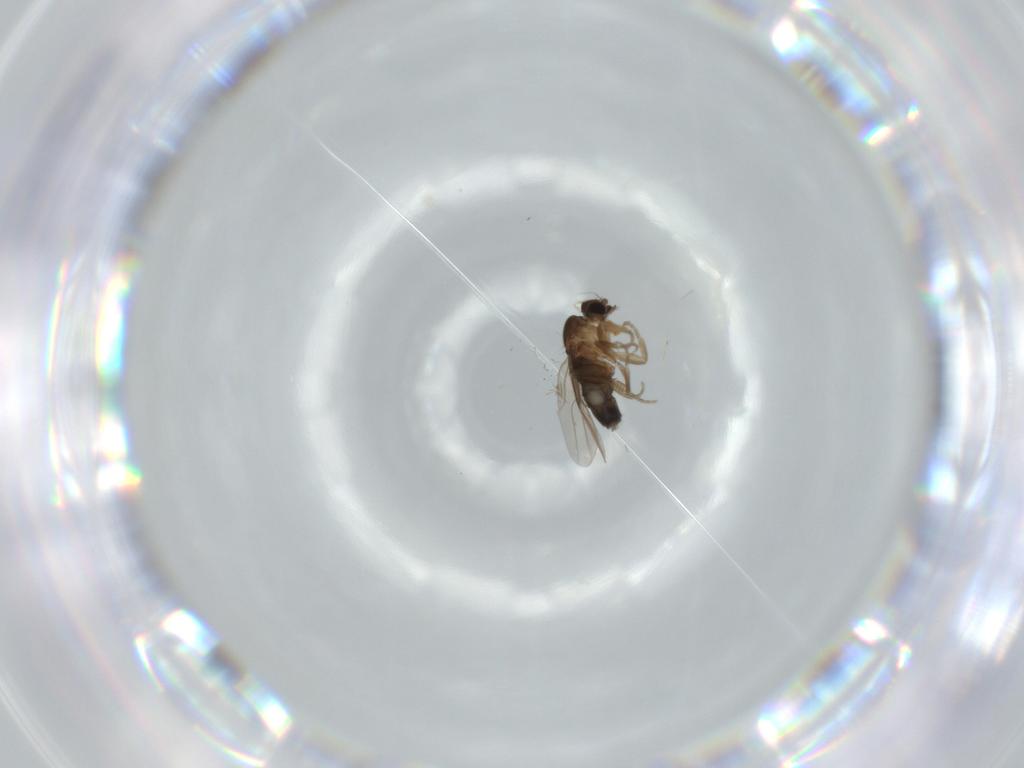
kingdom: Animalia
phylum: Arthropoda
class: Insecta
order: Diptera
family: Phoridae
